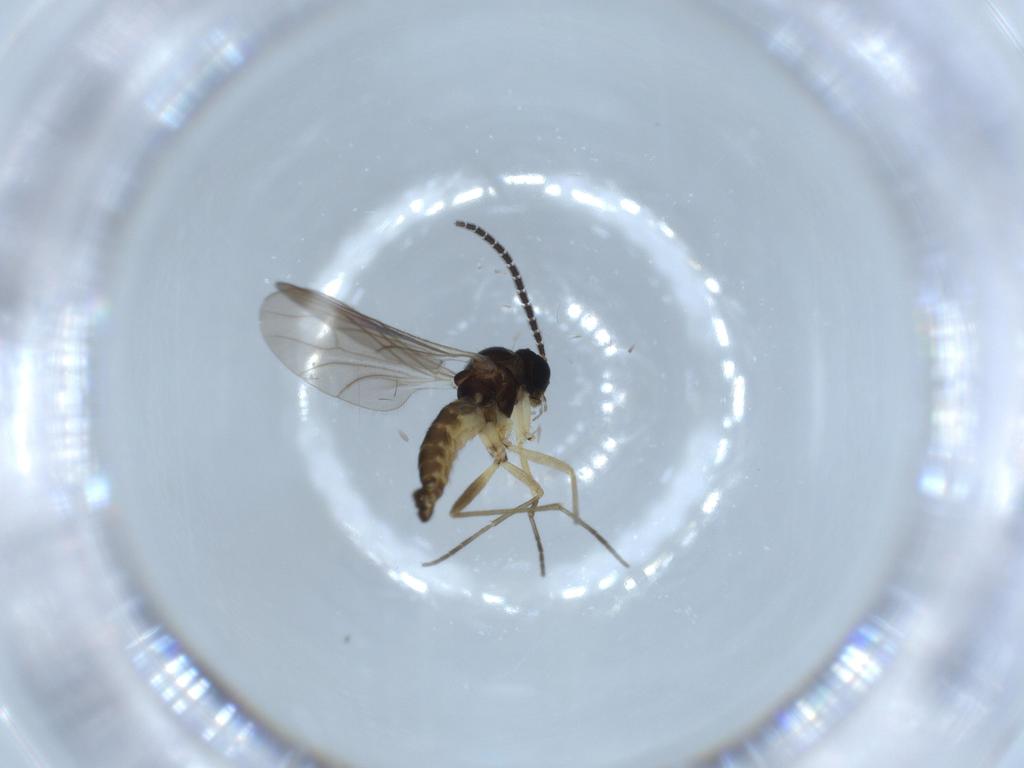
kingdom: Animalia
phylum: Arthropoda
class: Insecta
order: Diptera
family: Sciaridae
